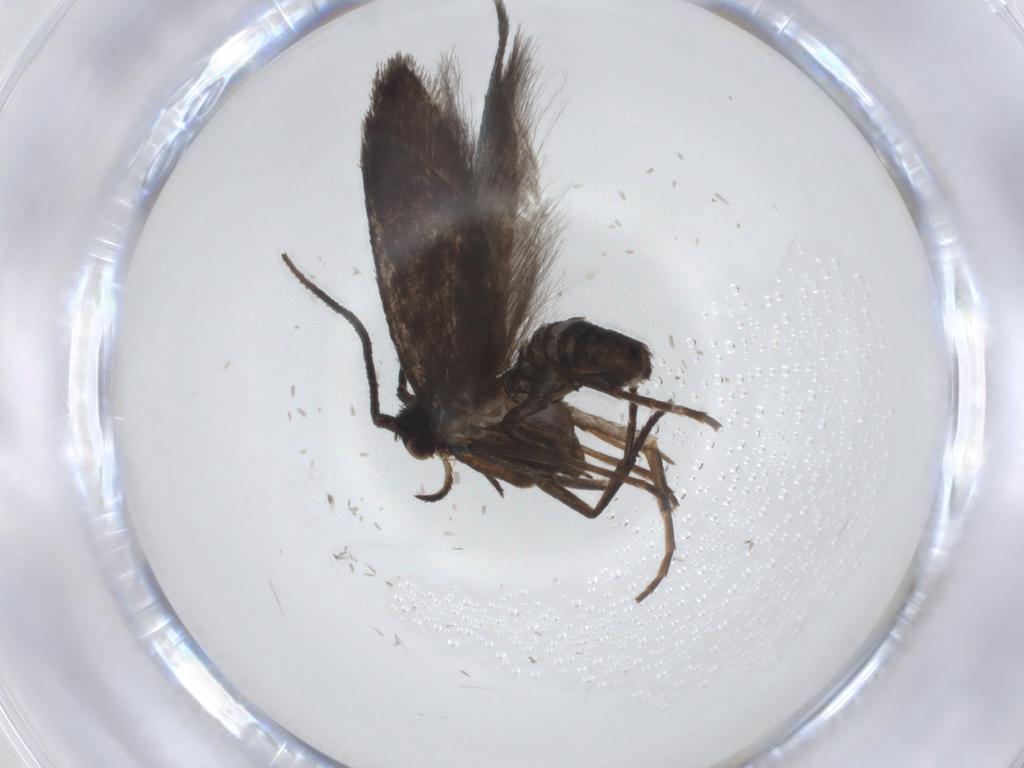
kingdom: Animalia
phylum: Arthropoda
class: Insecta
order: Lepidoptera
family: Argyresthiidae
